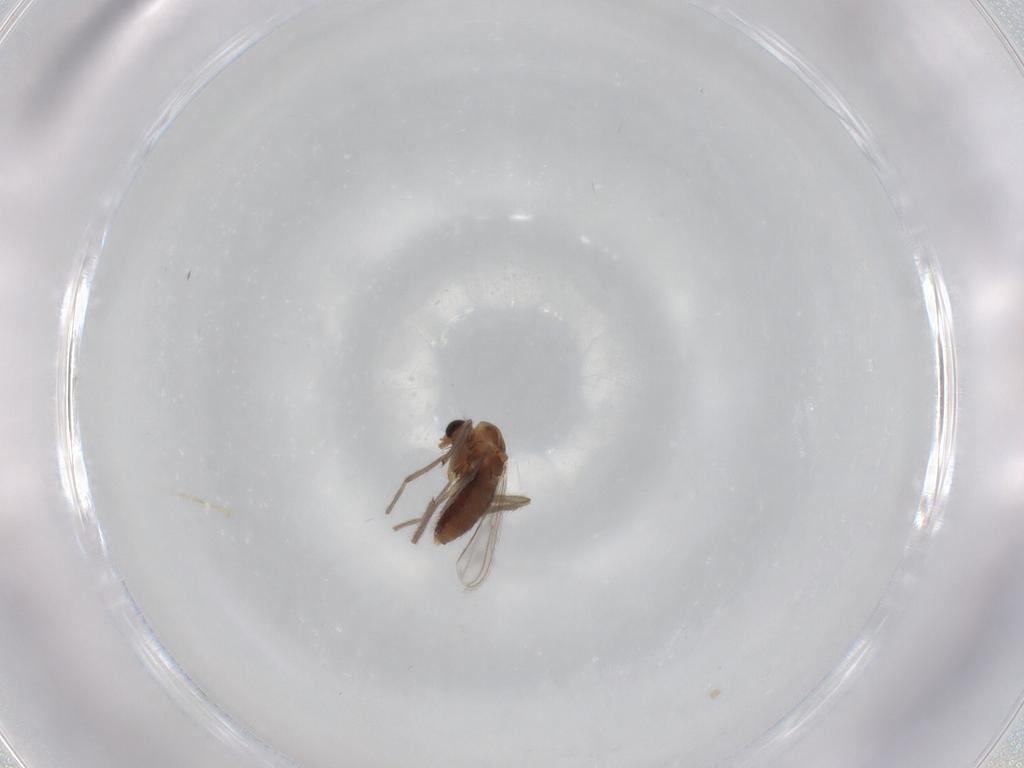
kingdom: Animalia
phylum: Arthropoda
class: Insecta
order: Diptera
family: Chironomidae
